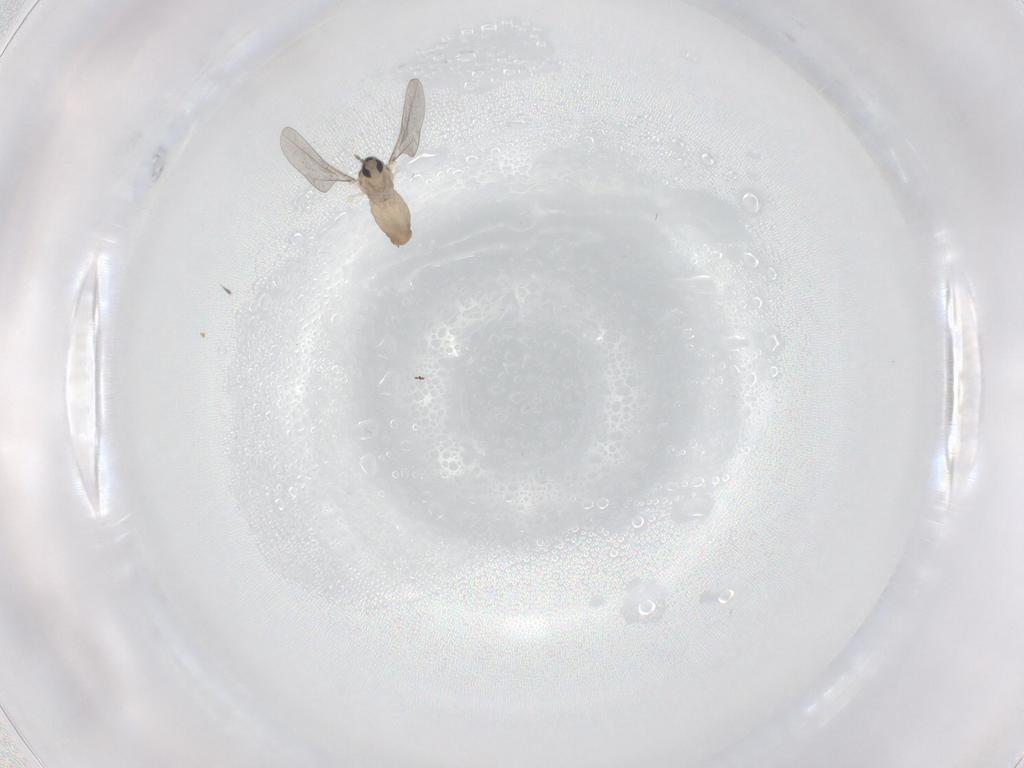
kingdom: Animalia
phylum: Arthropoda
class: Insecta
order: Diptera
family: Cecidomyiidae
